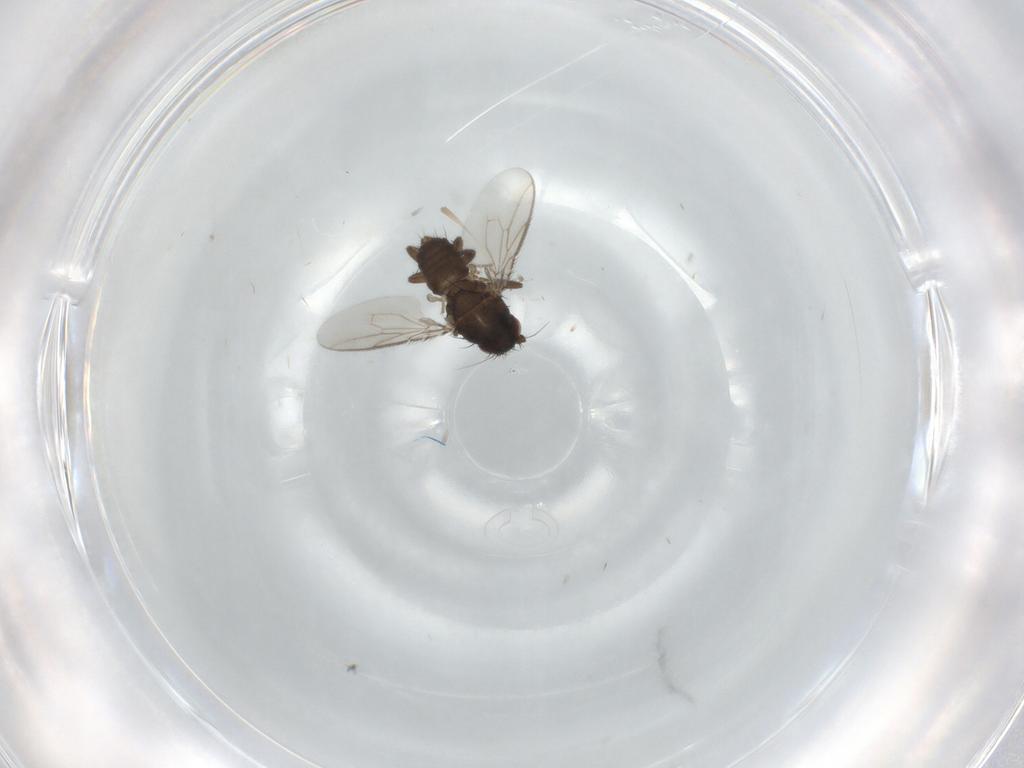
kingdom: Animalia
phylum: Arthropoda
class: Insecta
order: Diptera
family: Sphaeroceridae
